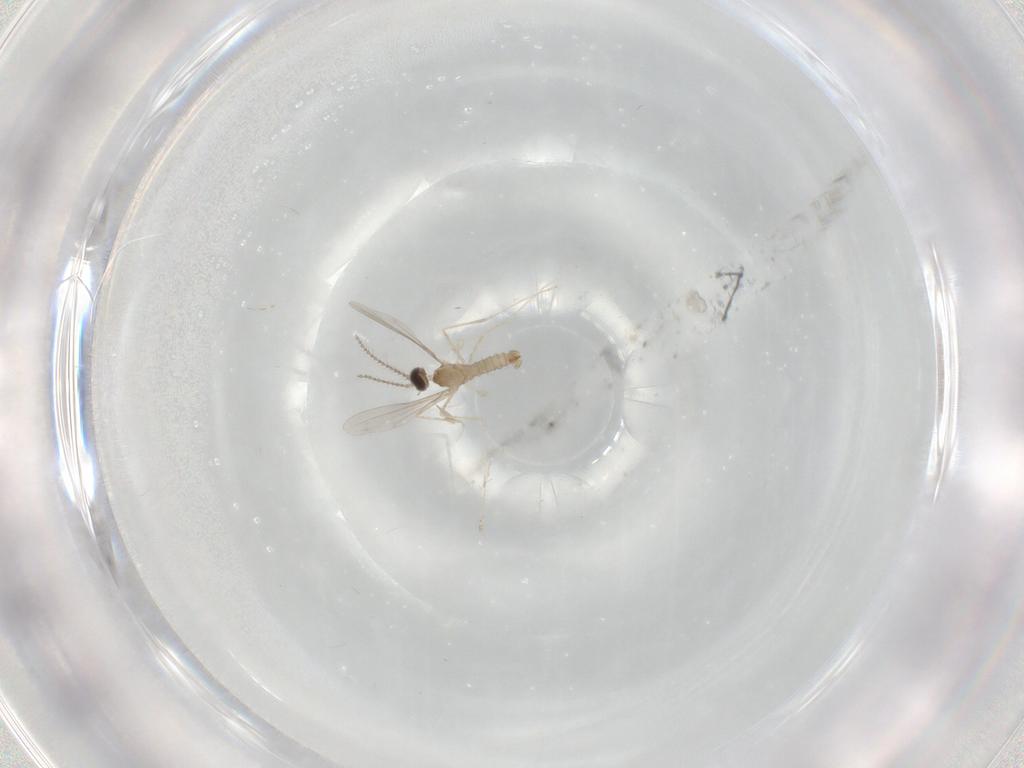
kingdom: Animalia
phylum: Arthropoda
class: Insecta
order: Diptera
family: Cecidomyiidae
